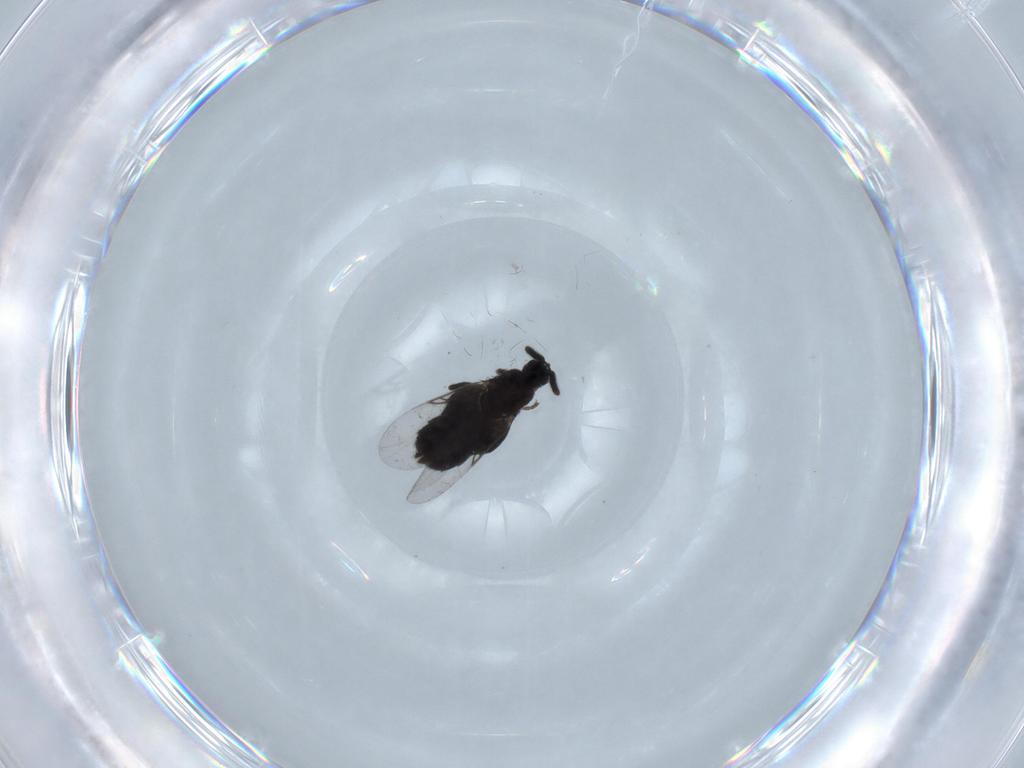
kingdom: Animalia
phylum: Arthropoda
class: Insecta
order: Diptera
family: Scatopsidae
